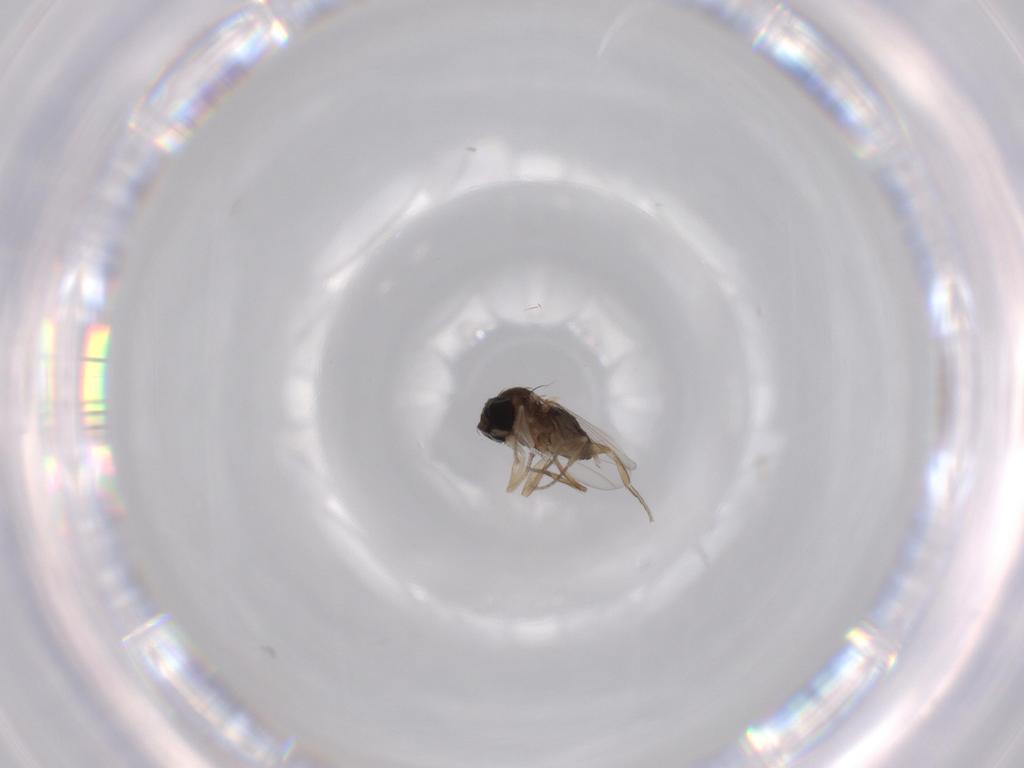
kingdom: Animalia
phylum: Arthropoda
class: Insecta
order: Diptera
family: Phoridae
